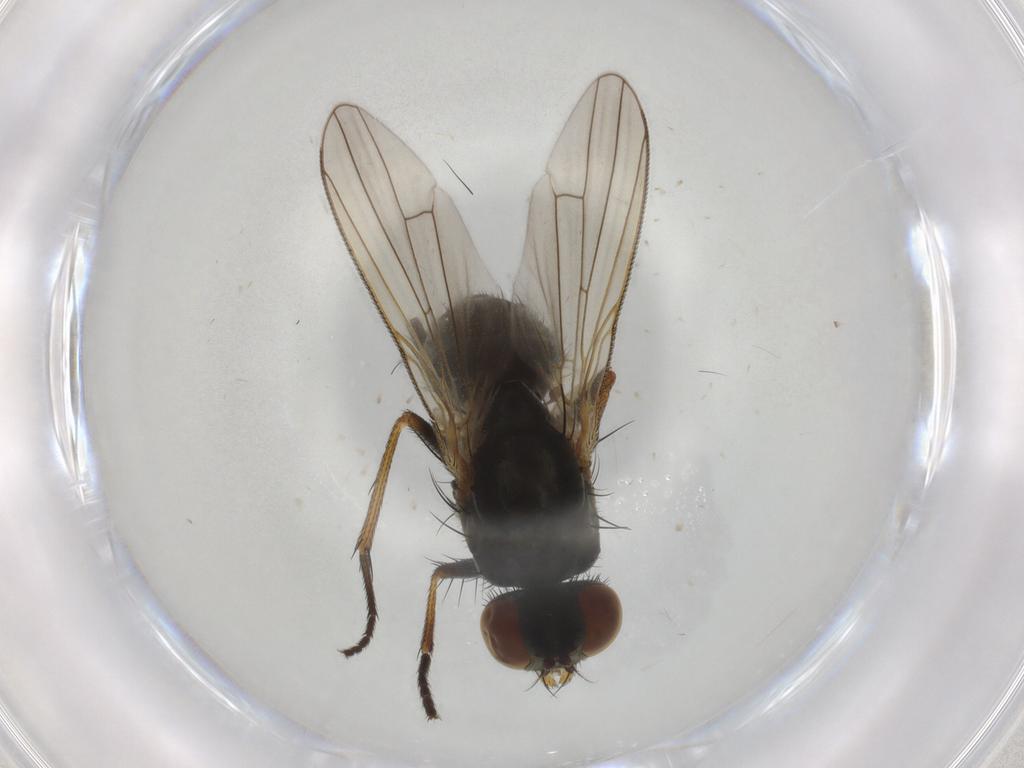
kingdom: Animalia
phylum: Arthropoda
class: Insecta
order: Diptera
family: Muscidae
